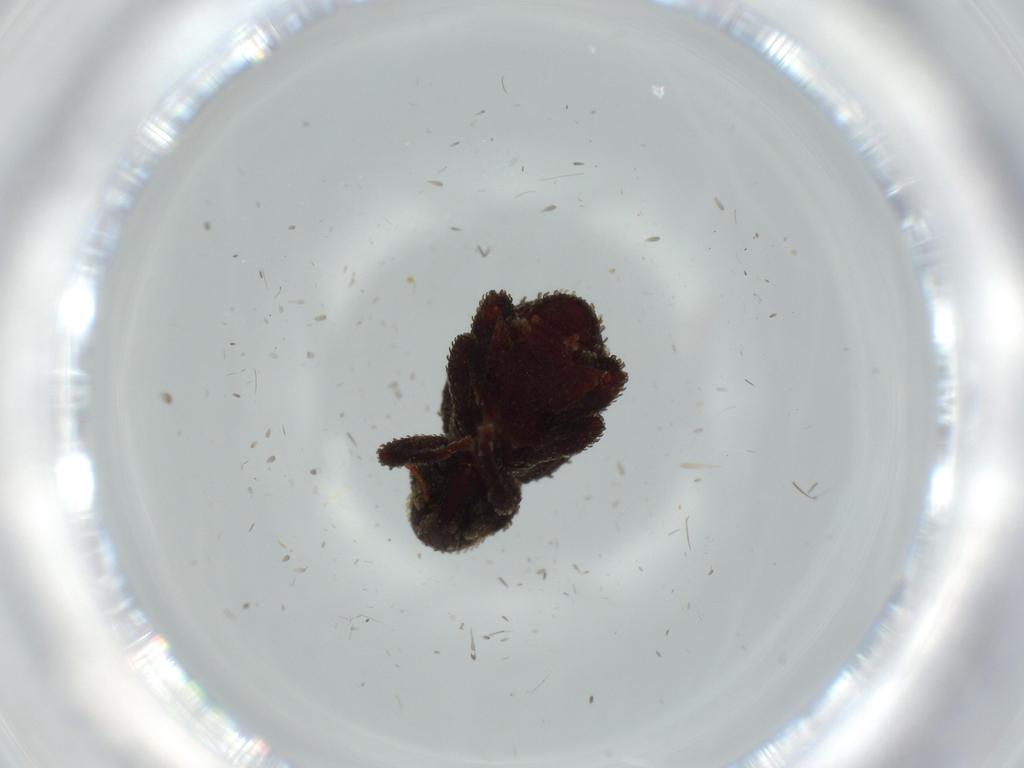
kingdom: Animalia
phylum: Arthropoda
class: Insecta
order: Coleoptera
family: Curculionidae
